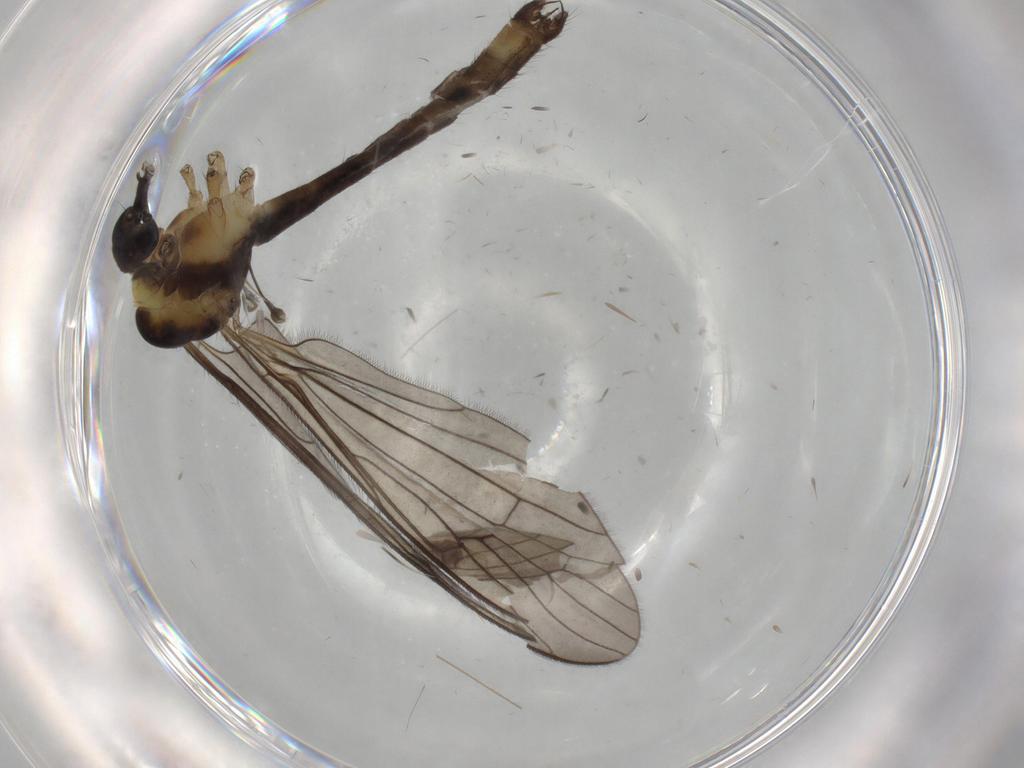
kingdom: Animalia
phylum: Arthropoda
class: Insecta
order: Diptera
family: Limoniidae
